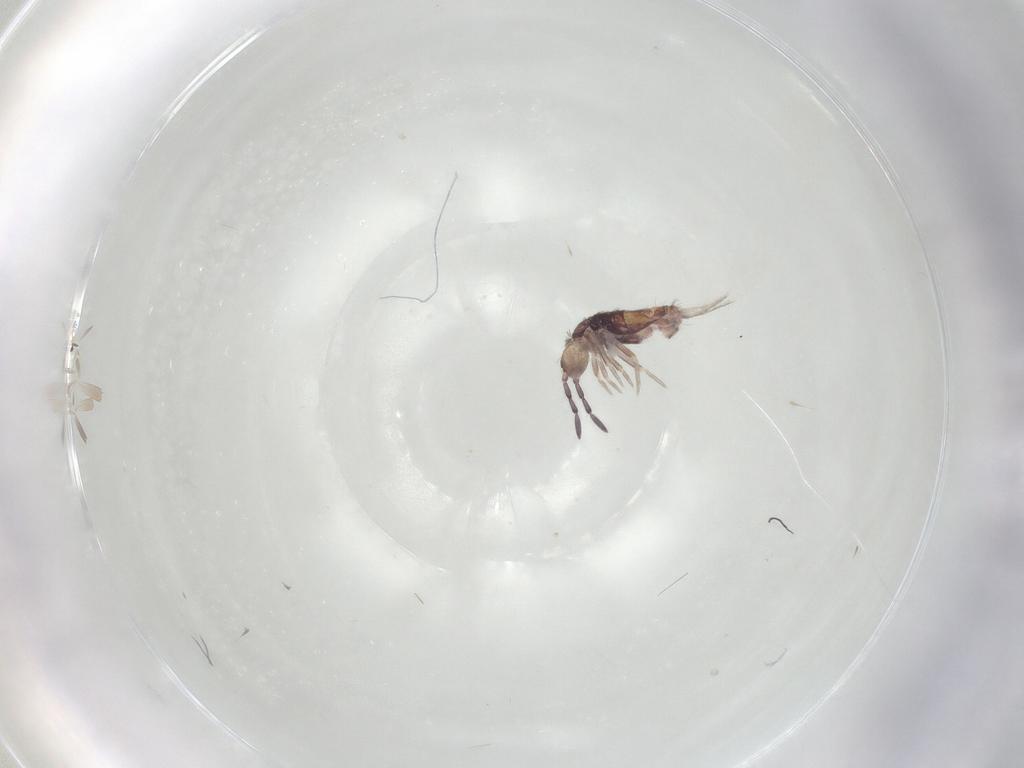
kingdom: Animalia
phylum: Arthropoda
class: Collembola
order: Entomobryomorpha
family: Entomobryidae
